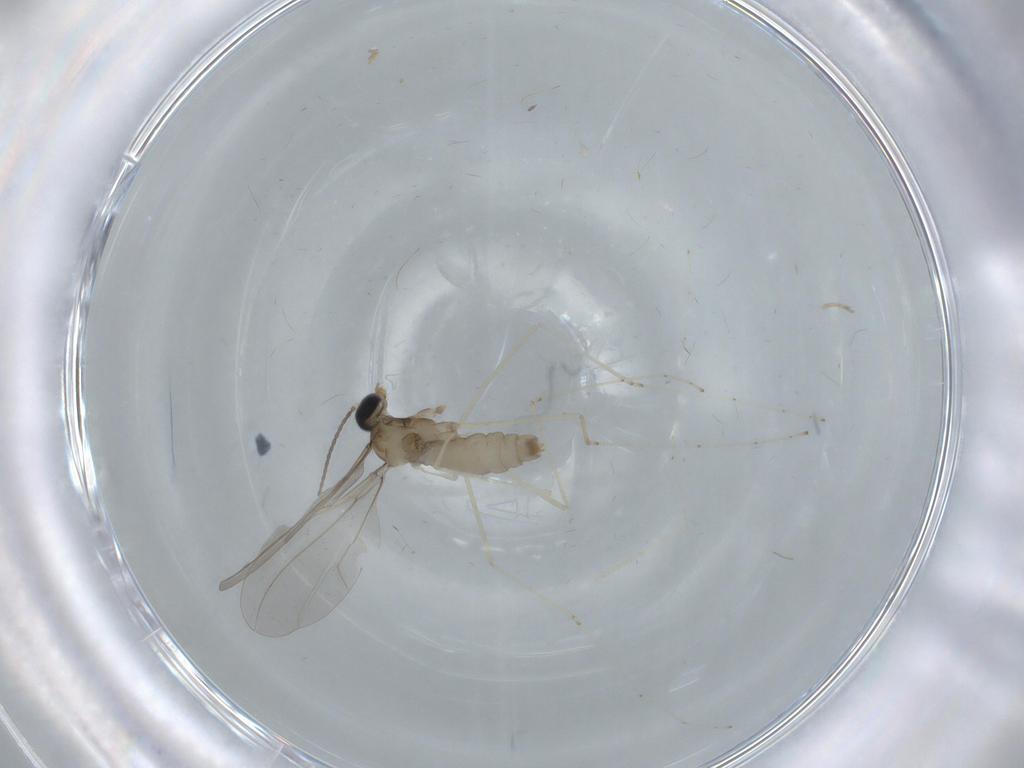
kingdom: Animalia
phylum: Arthropoda
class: Insecta
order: Diptera
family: Cecidomyiidae
